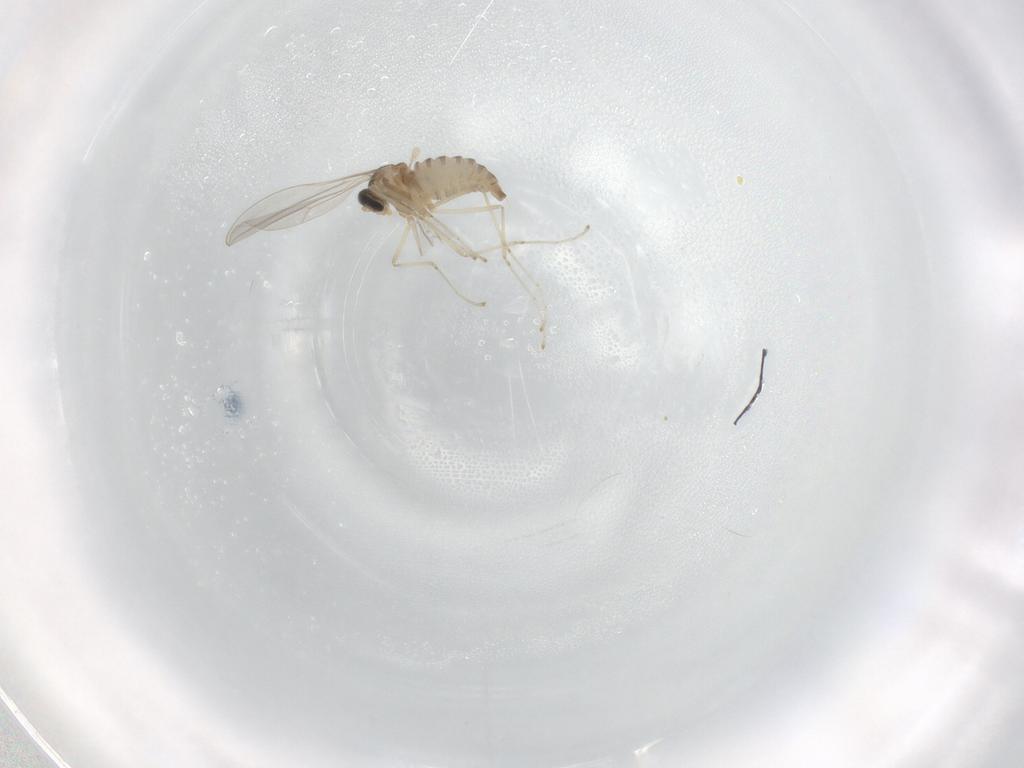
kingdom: Animalia
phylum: Arthropoda
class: Insecta
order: Diptera
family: Cecidomyiidae
